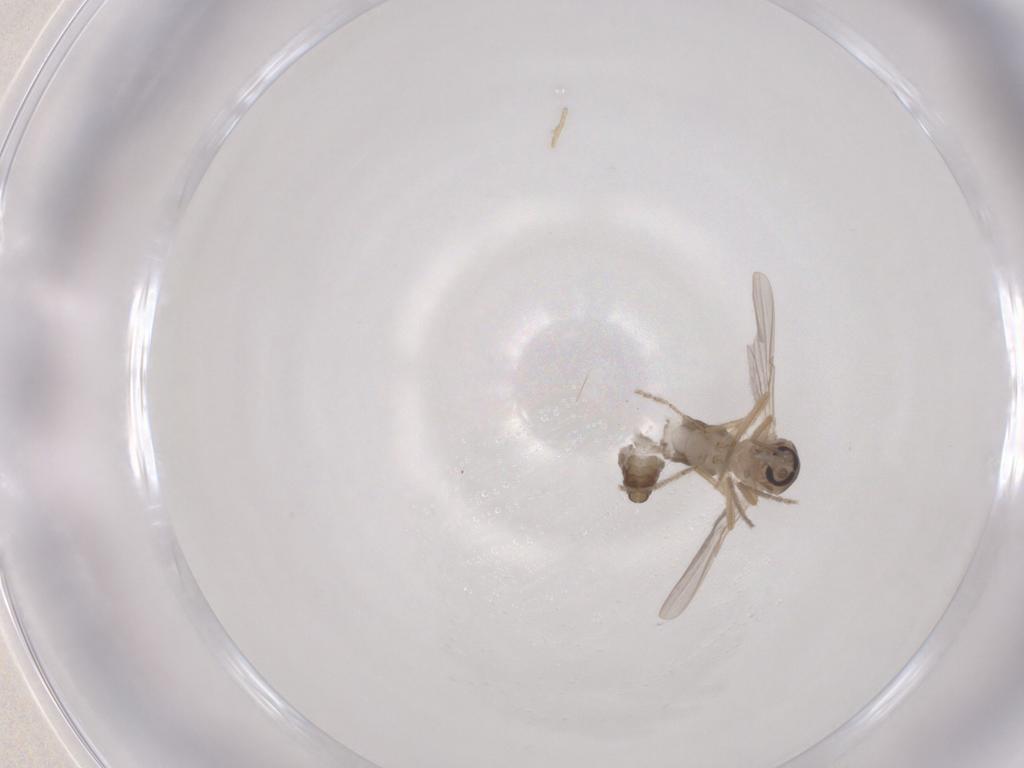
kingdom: Animalia
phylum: Arthropoda
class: Insecta
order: Diptera
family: Ceratopogonidae
